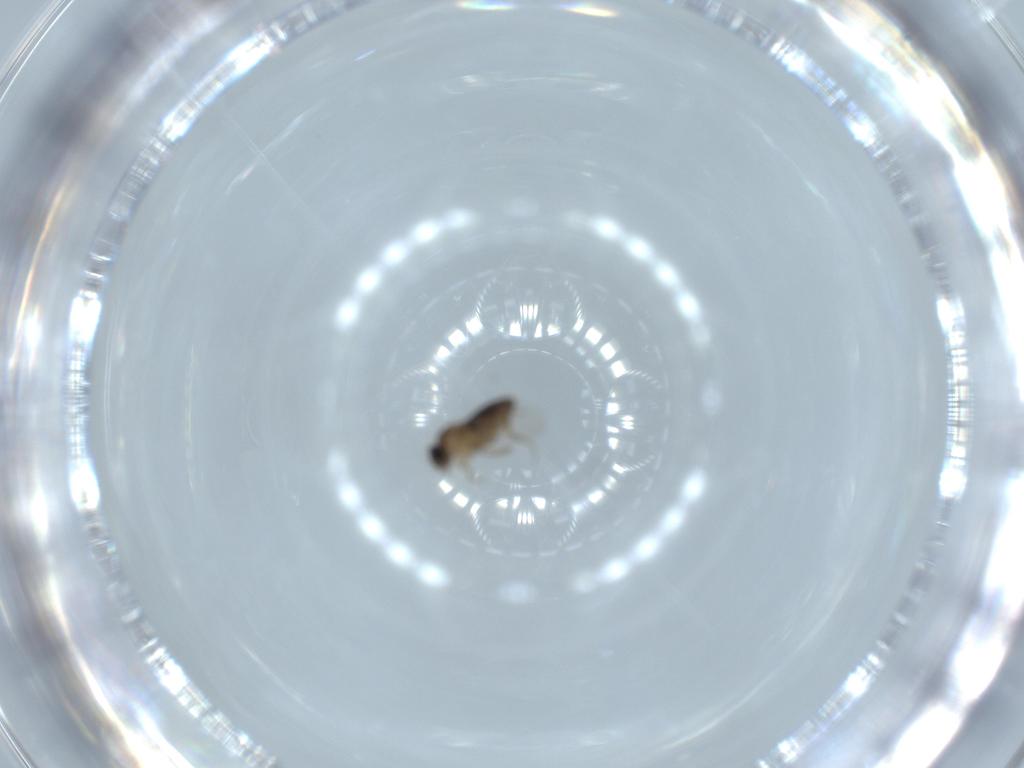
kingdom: Animalia
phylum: Arthropoda
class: Insecta
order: Diptera
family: Phoridae
